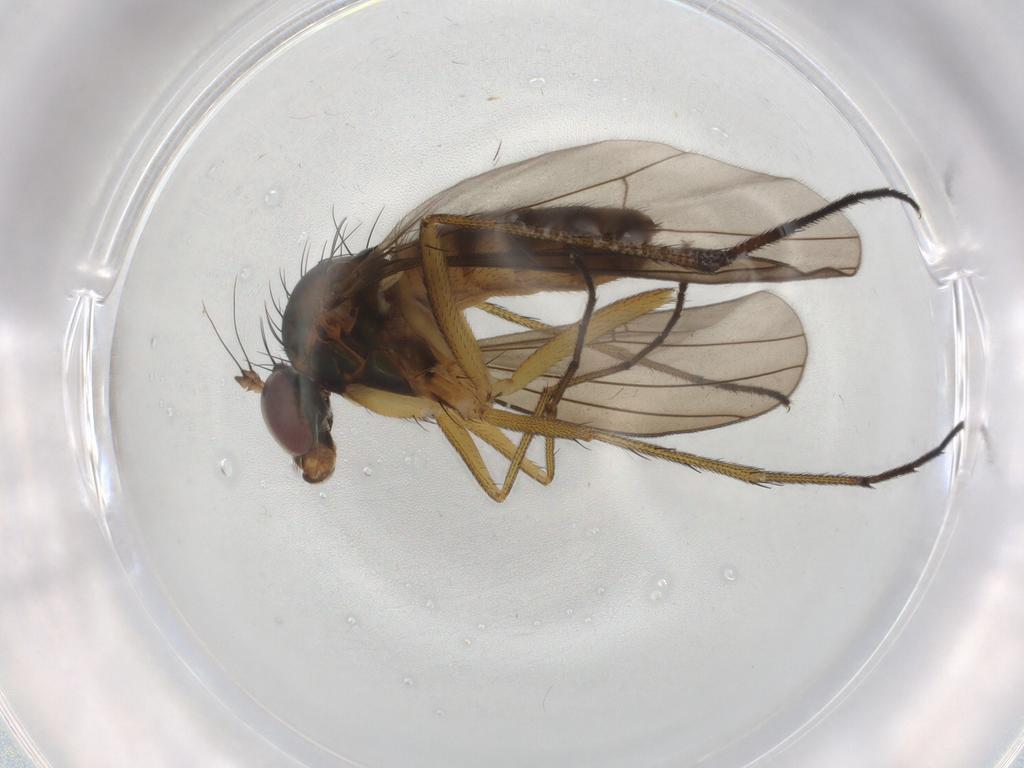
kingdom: Animalia
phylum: Arthropoda
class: Insecta
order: Diptera
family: Dolichopodidae
